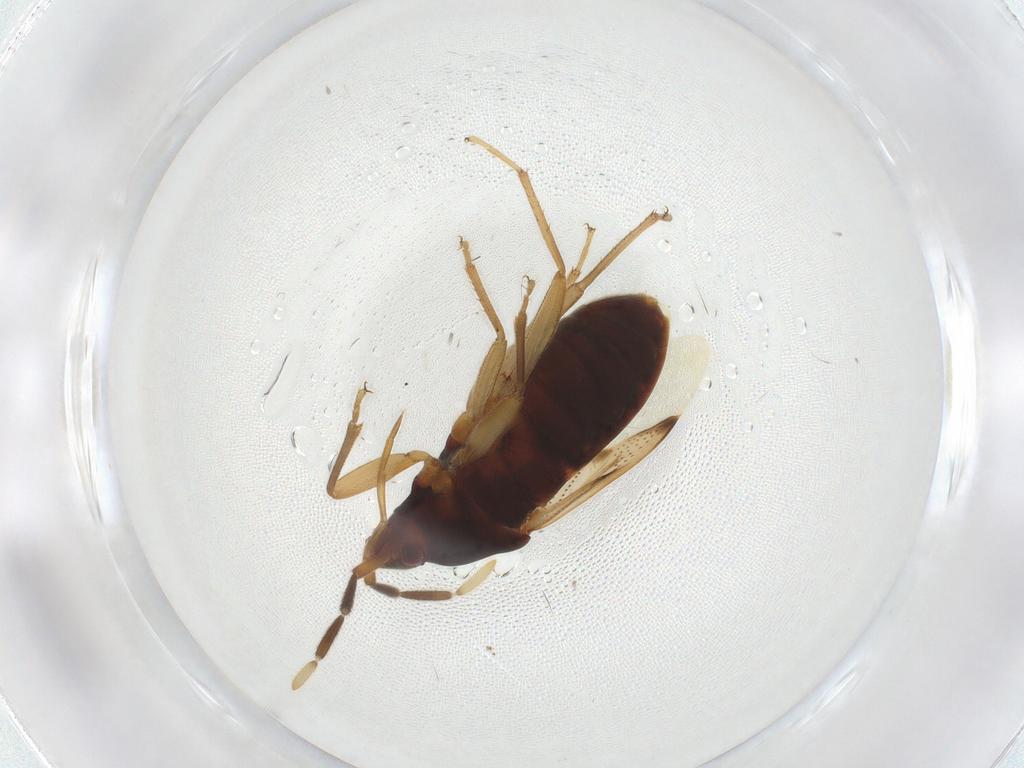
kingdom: Animalia
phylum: Arthropoda
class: Insecta
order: Hemiptera
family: Rhyparochromidae
